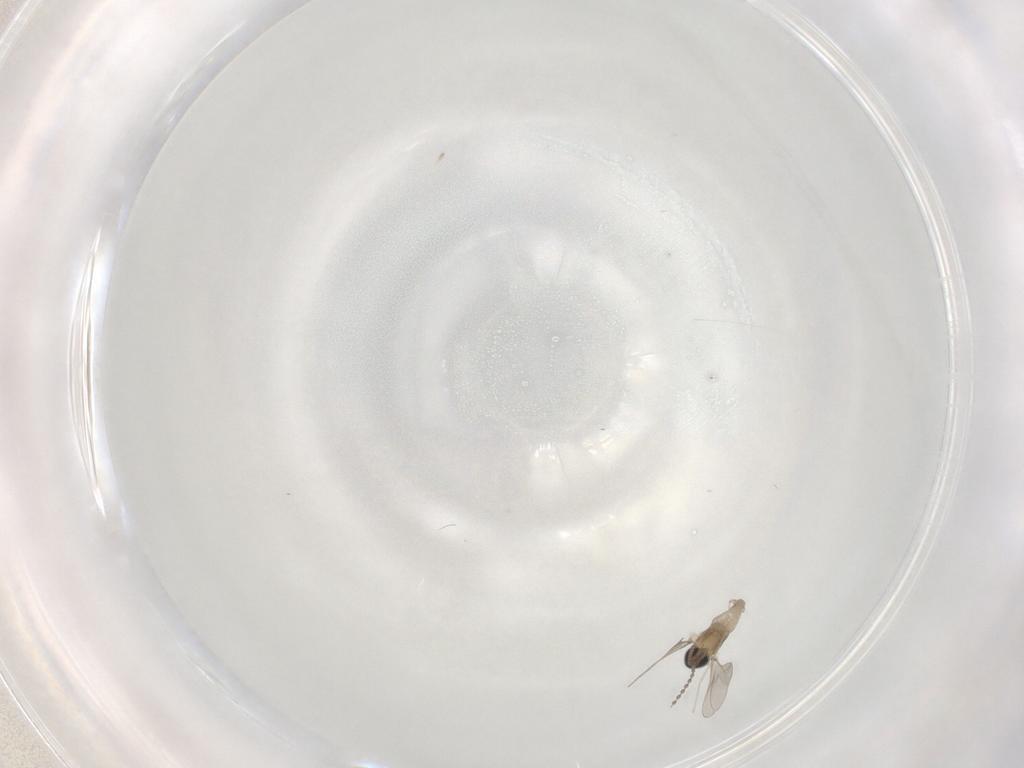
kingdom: Animalia
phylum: Arthropoda
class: Insecta
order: Diptera
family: Cecidomyiidae
